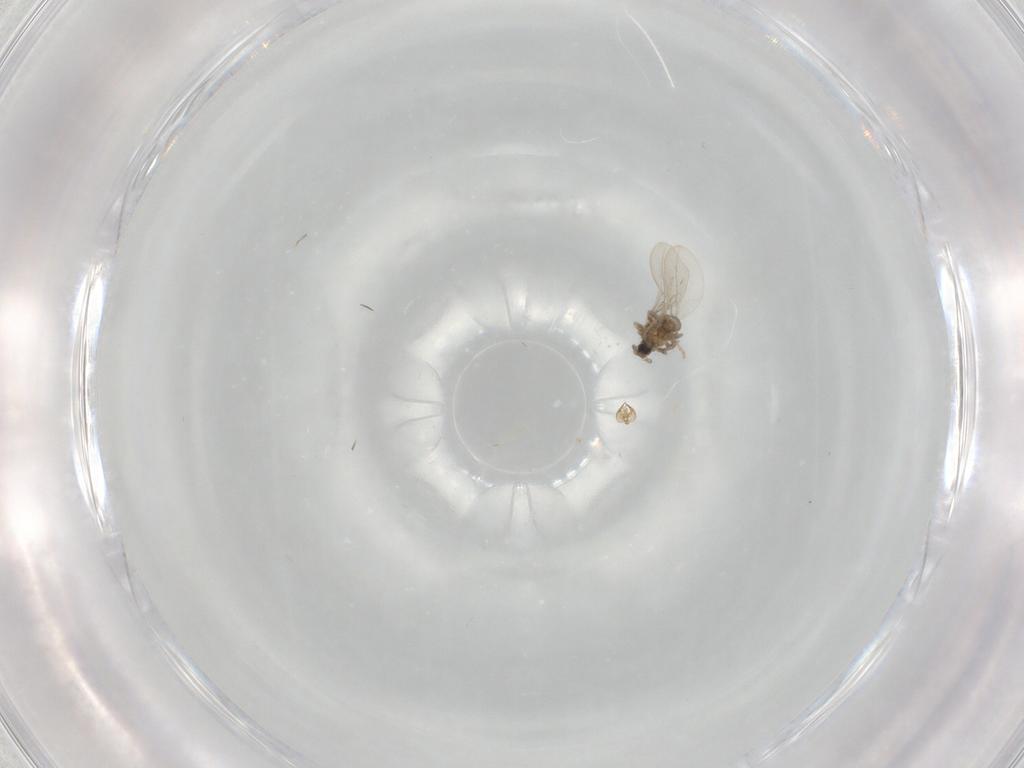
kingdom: Animalia
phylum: Arthropoda
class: Insecta
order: Diptera
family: Cecidomyiidae
